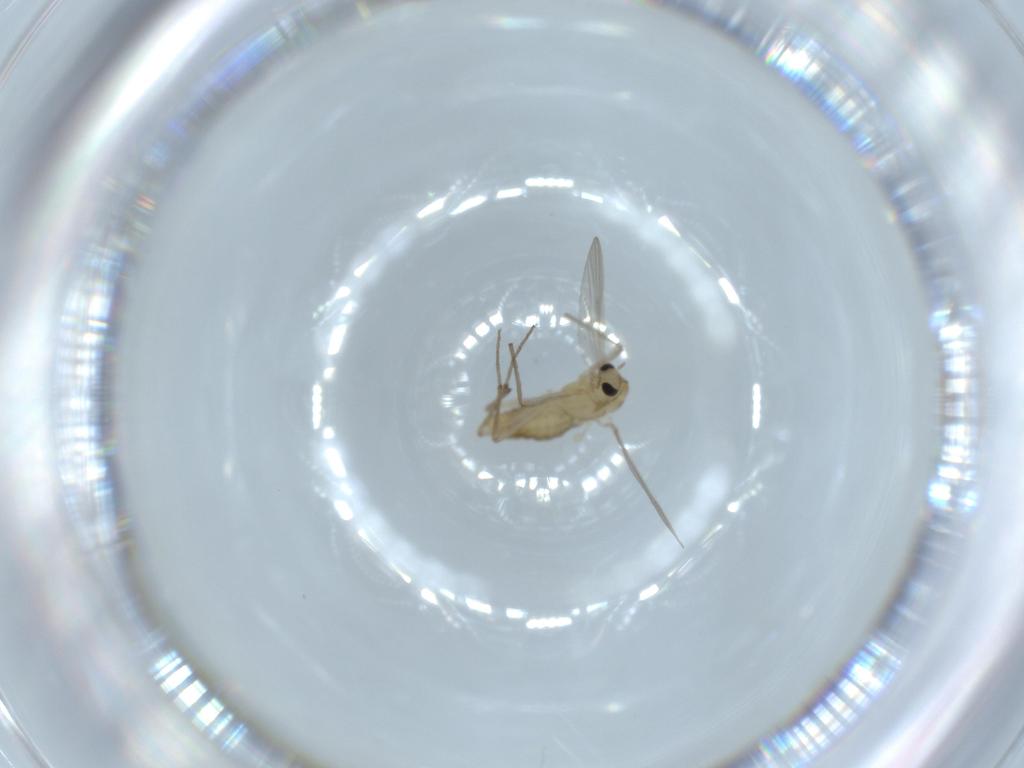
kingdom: Animalia
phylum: Arthropoda
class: Insecta
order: Diptera
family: Chironomidae
